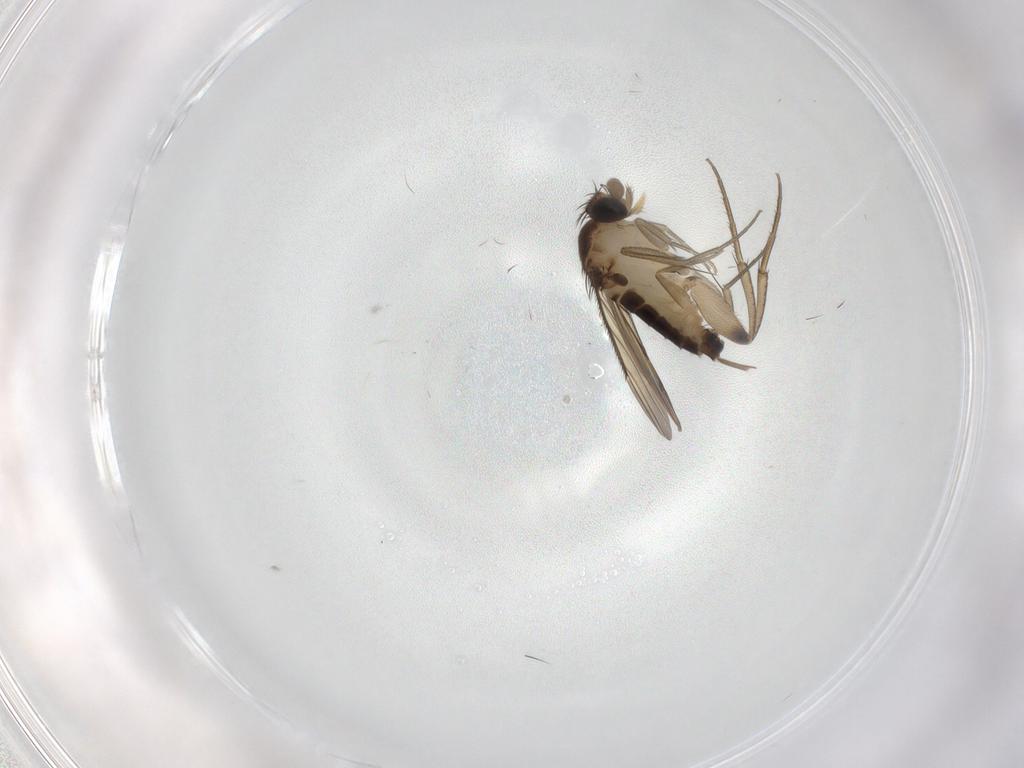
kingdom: Animalia
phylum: Arthropoda
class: Insecta
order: Diptera
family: Phoridae
